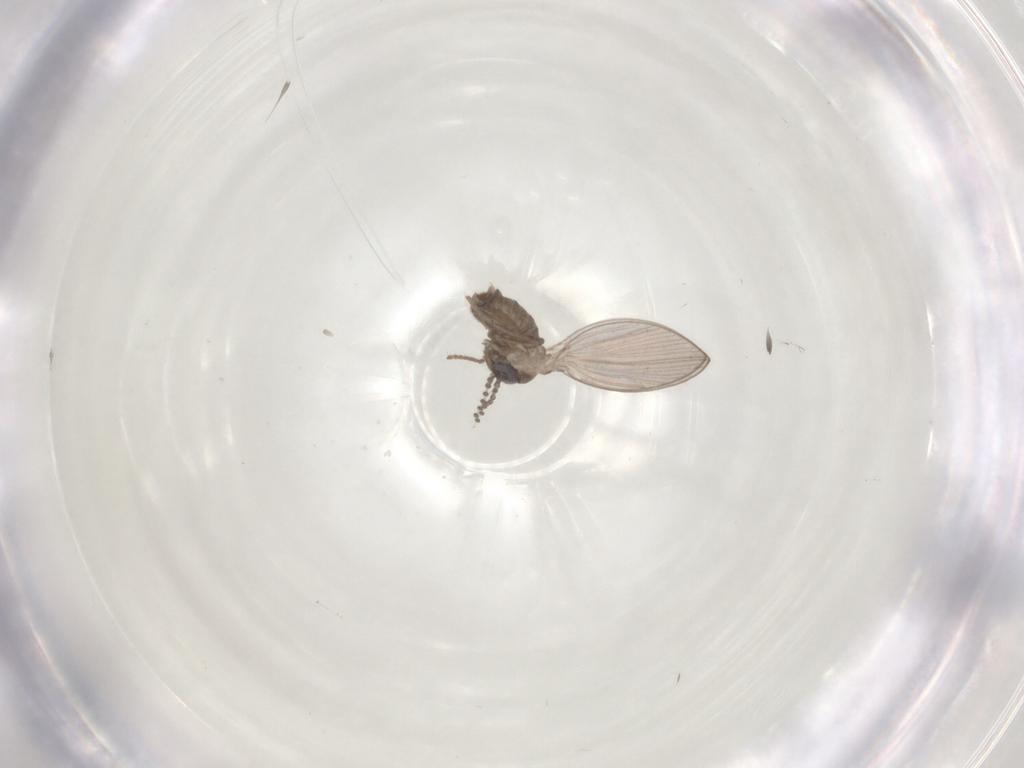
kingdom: Animalia
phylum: Arthropoda
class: Insecta
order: Diptera
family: Psychodidae
